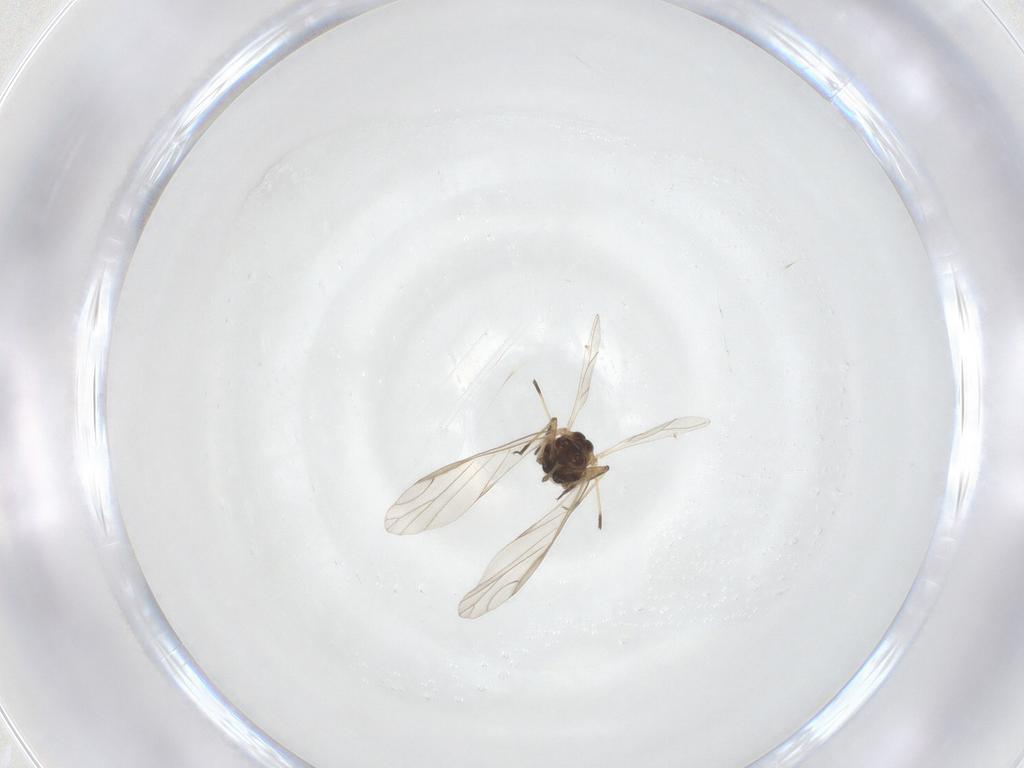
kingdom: Animalia
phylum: Arthropoda
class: Insecta
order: Hemiptera
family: Aphididae
